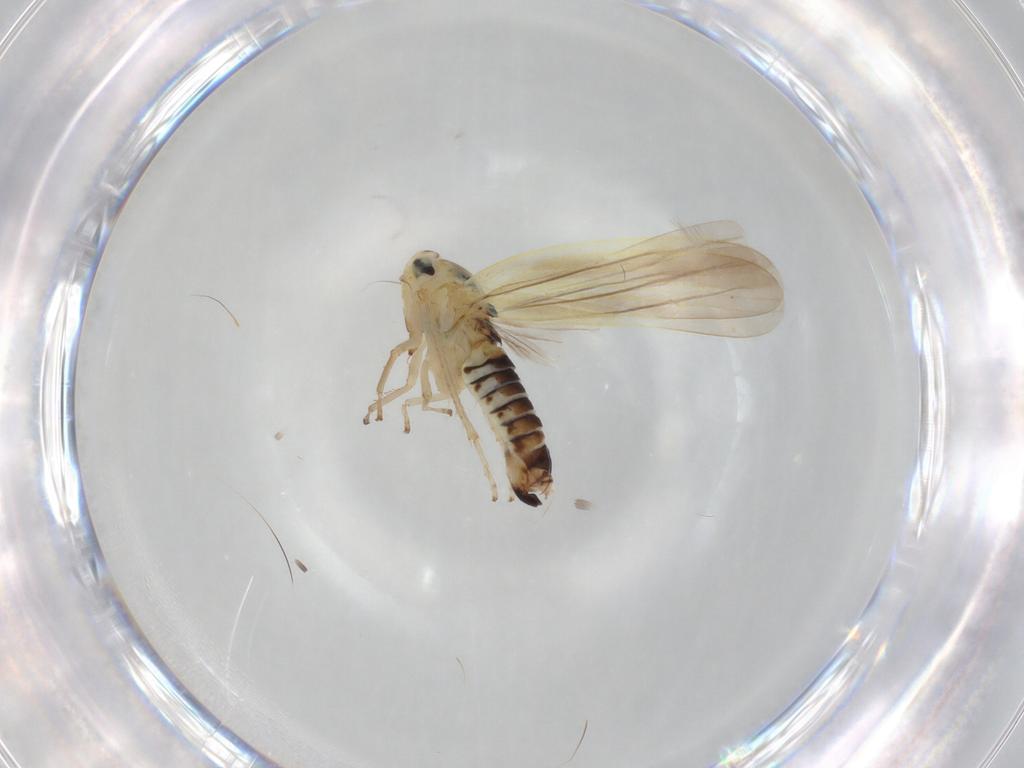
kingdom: Animalia
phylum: Arthropoda
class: Insecta
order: Hemiptera
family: Cicadellidae
